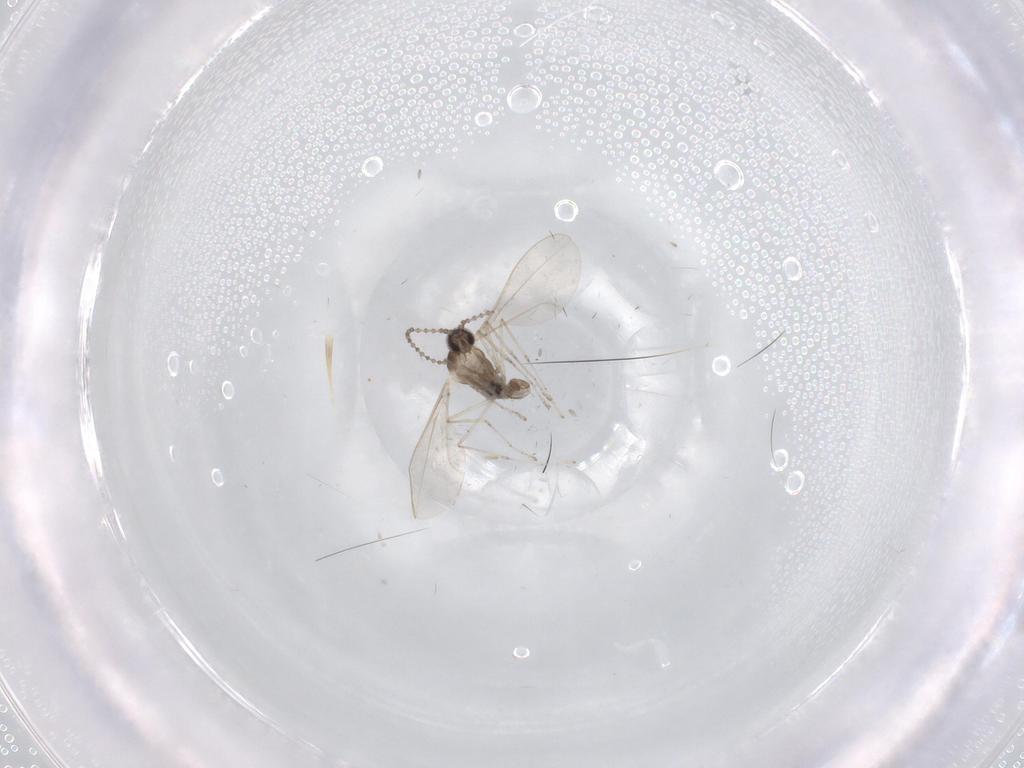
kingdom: Animalia
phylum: Arthropoda
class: Insecta
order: Diptera
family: Cecidomyiidae
